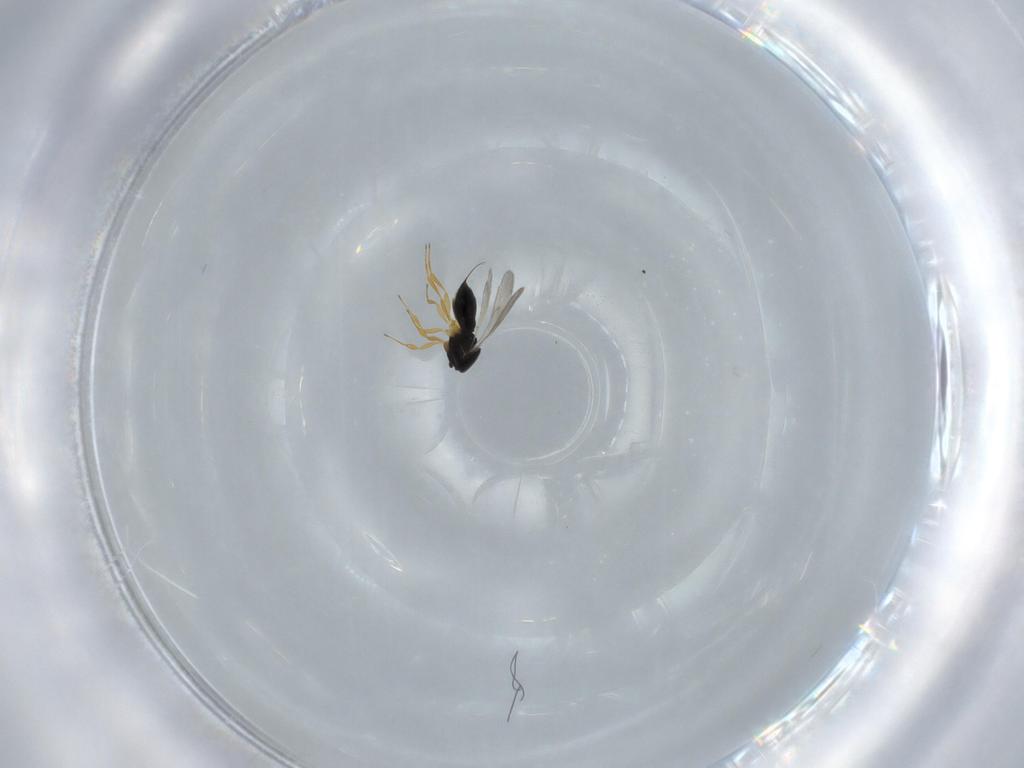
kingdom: Animalia
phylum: Arthropoda
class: Insecta
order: Hymenoptera
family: Scelionidae
